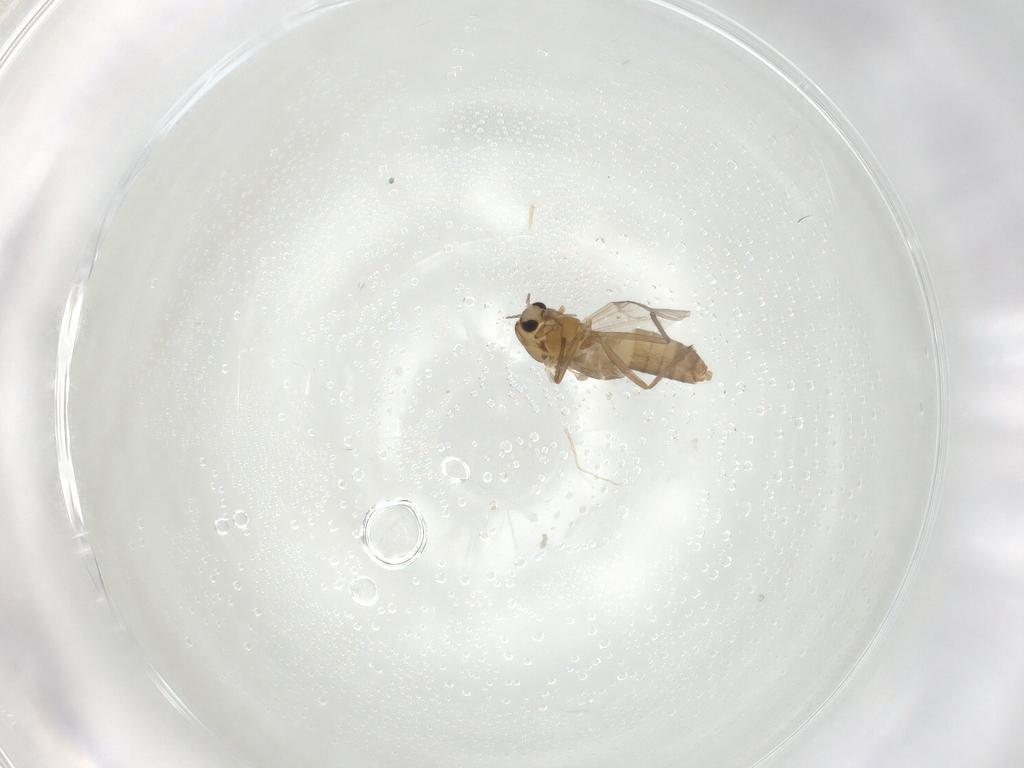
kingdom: Animalia
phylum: Arthropoda
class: Insecta
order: Diptera
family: Chironomidae
